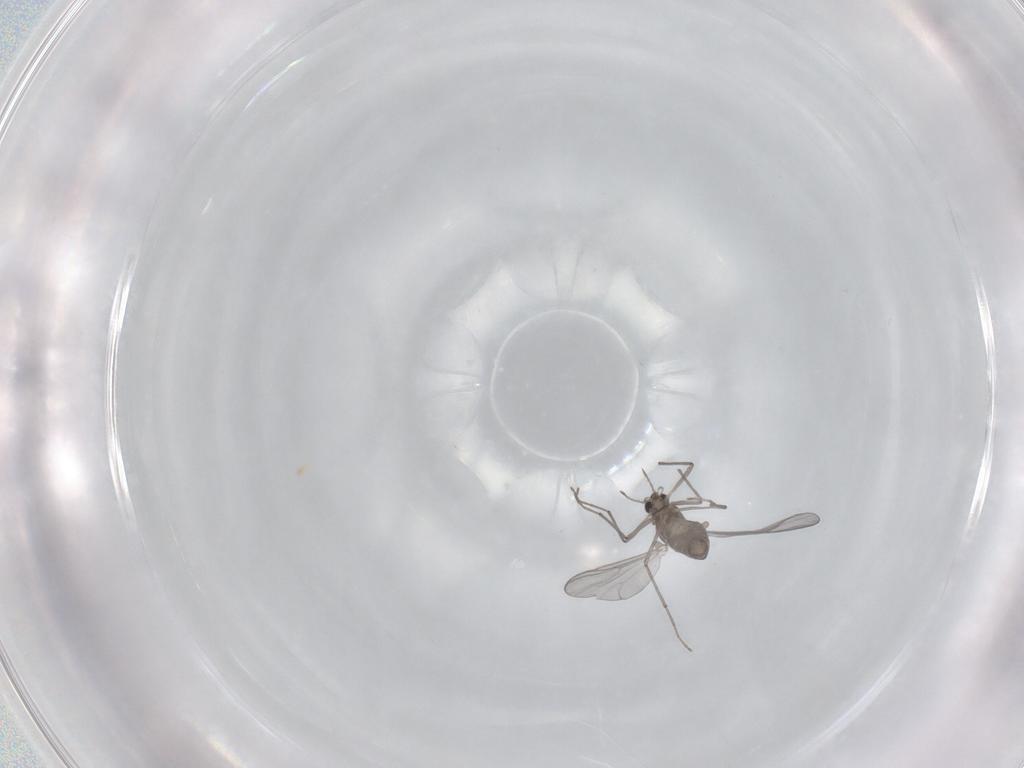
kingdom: Animalia
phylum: Arthropoda
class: Insecta
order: Diptera
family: Chironomidae
